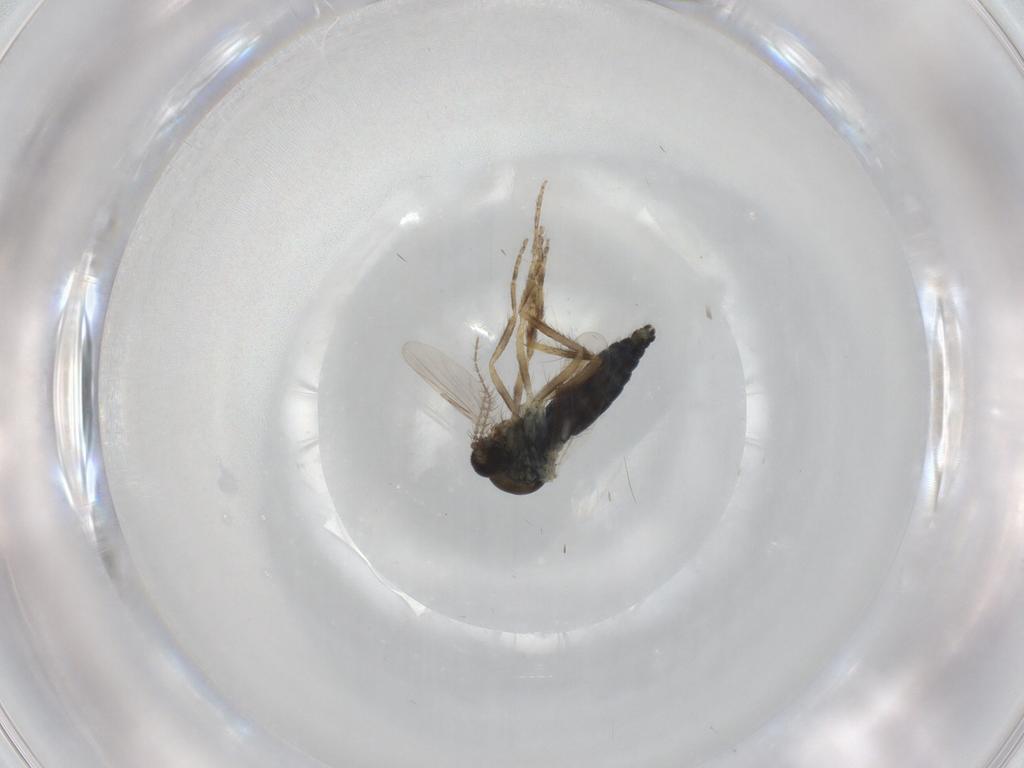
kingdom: Animalia
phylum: Arthropoda
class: Insecta
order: Diptera
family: Ceratopogonidae
